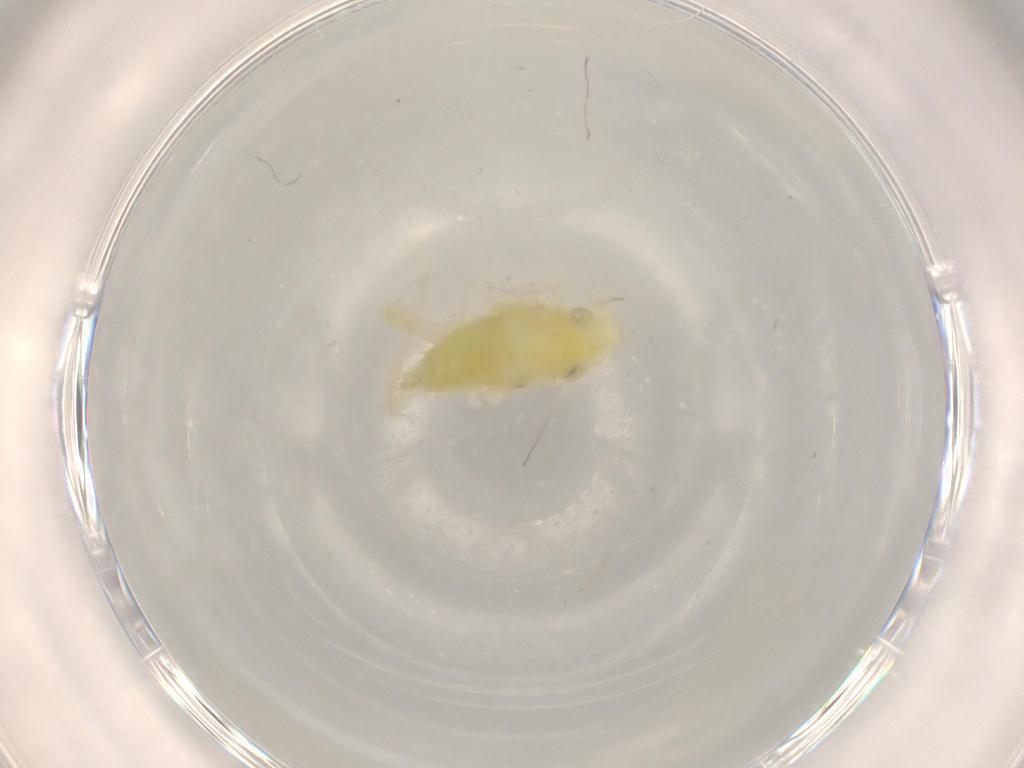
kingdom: Animalia
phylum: Arthropoda
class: Insecta
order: Hemiptera
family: Cicadellidae
